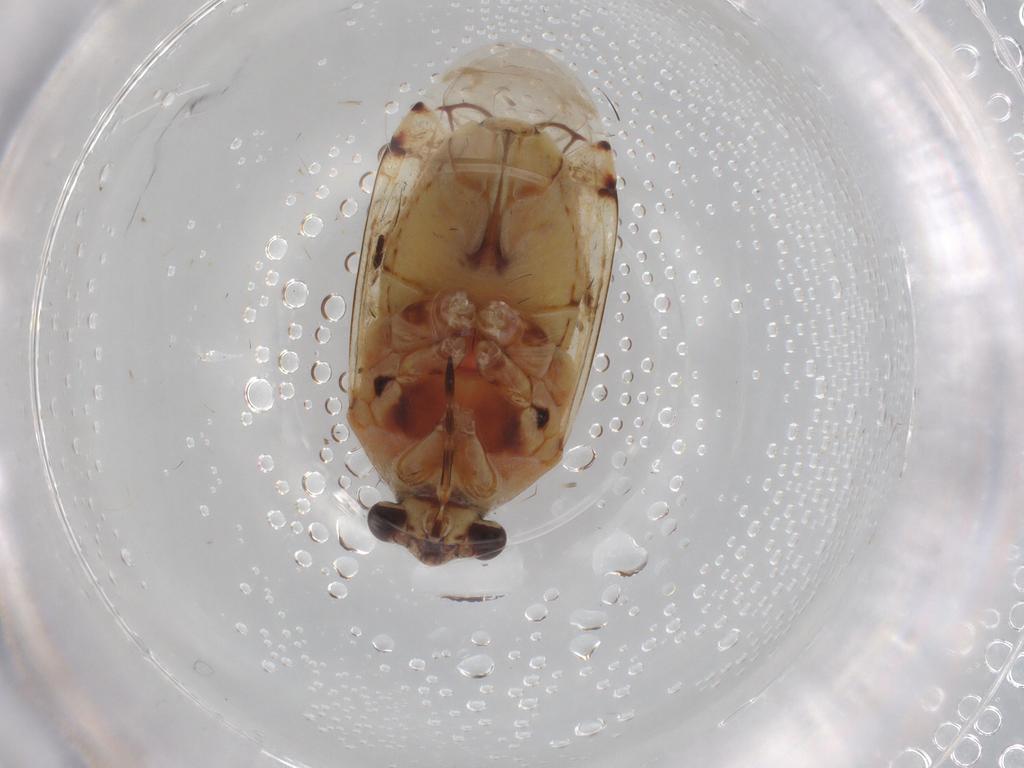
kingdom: Animalia
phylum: Arthropoda
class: Insecta
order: Hemiptera
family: Miridae
